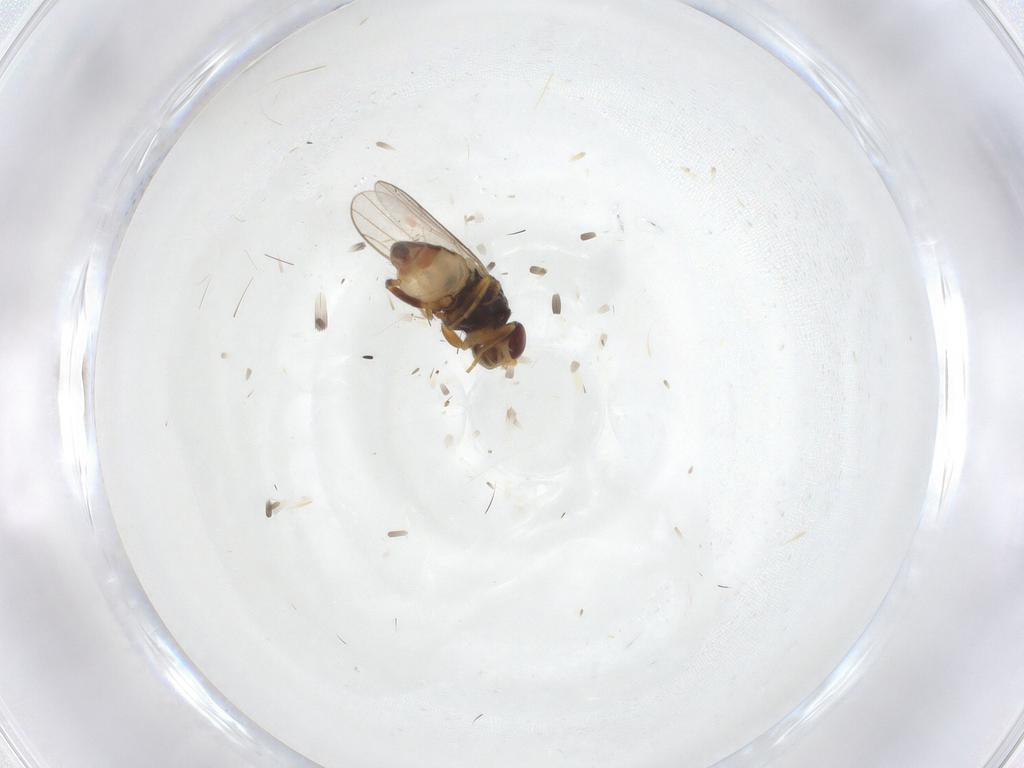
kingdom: Animalia
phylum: Arthropoda
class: Insecta
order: Diptera
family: Chloropidae
